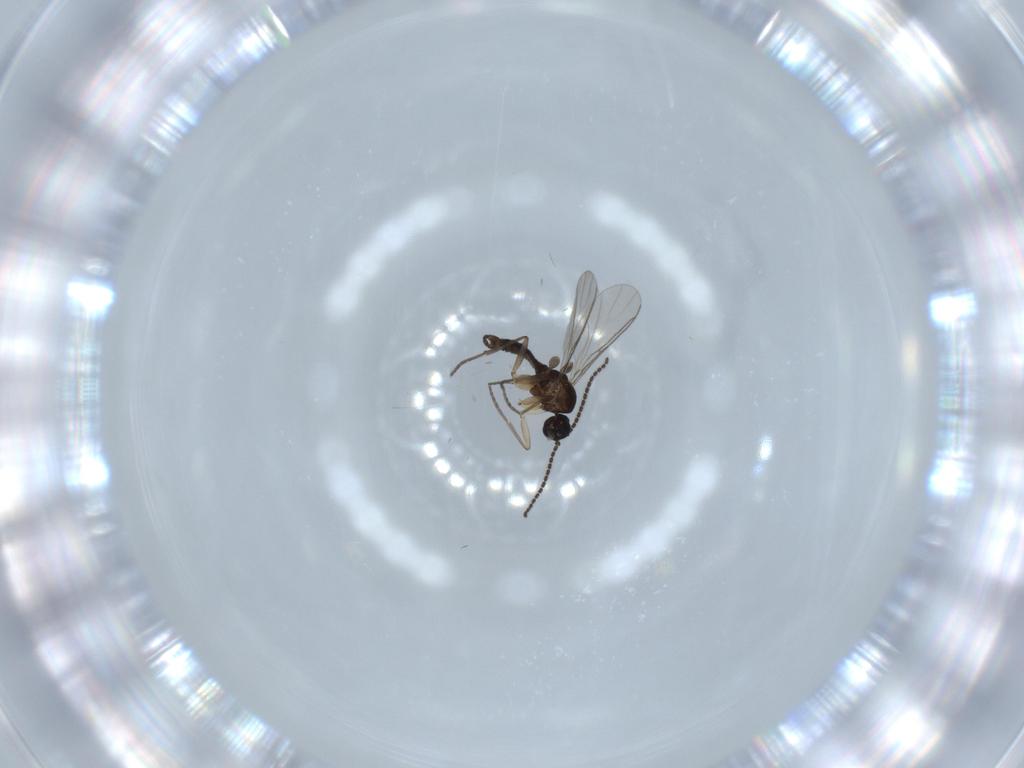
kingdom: Animalia
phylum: Arthropoda
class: Insecta
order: Diptera
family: Sciaridae
